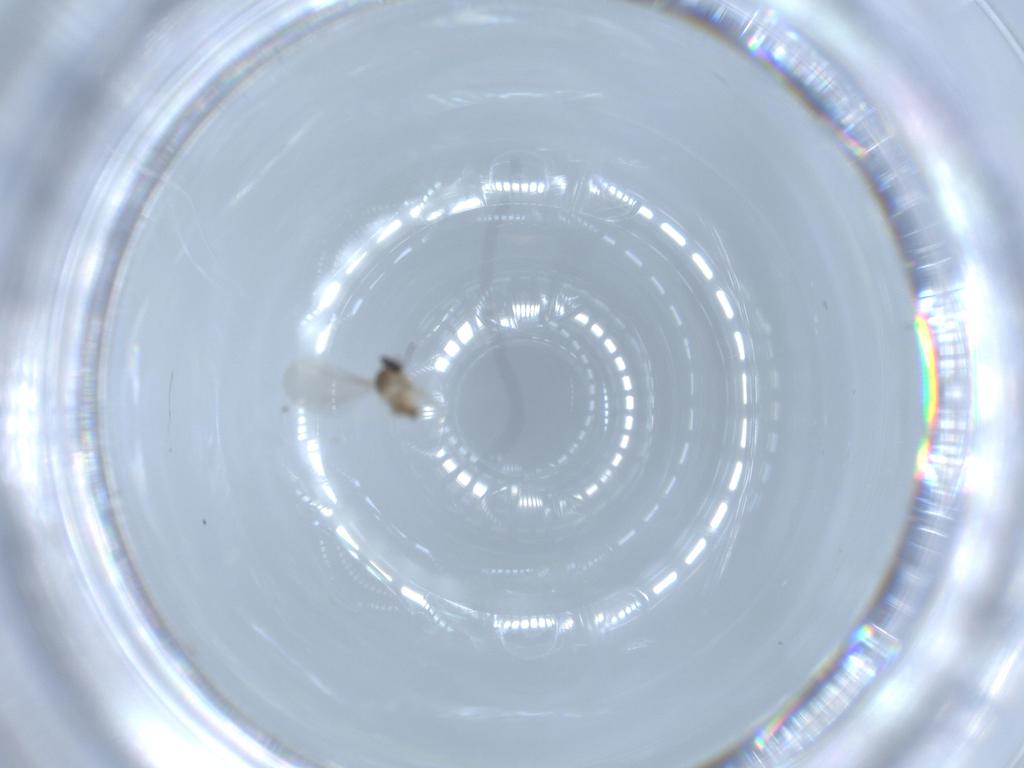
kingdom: Animalia
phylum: Arthropoda
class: Insecta
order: Diptera
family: Cecidomyiidae
